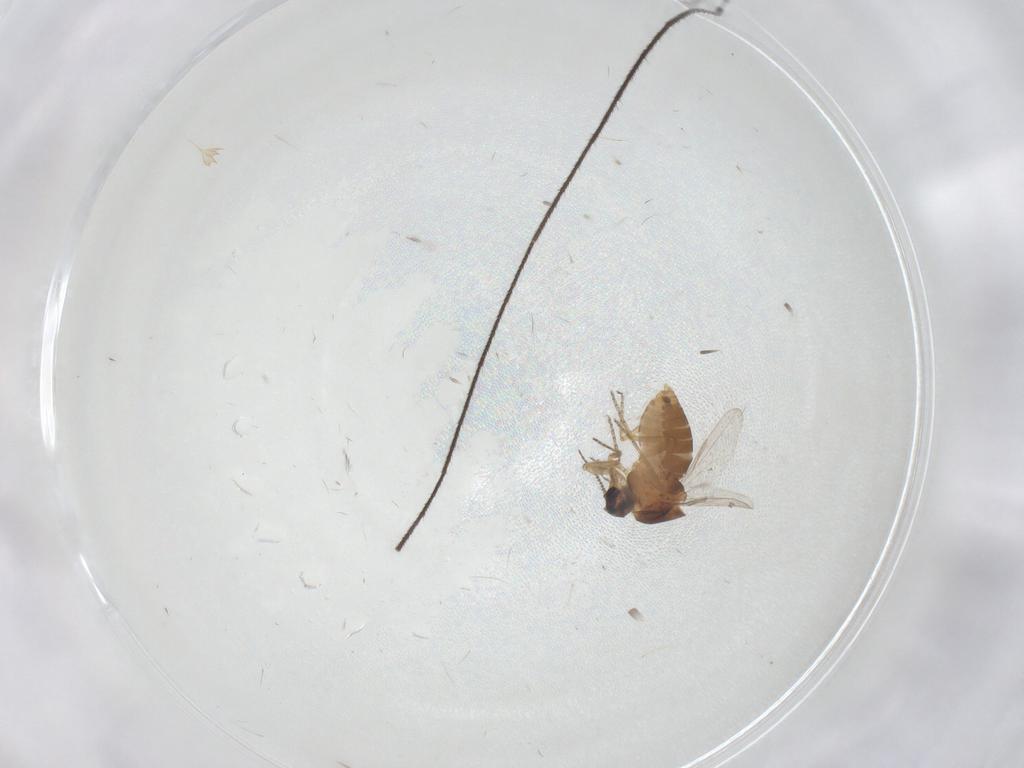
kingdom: Animalia
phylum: Arthropoda
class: Insecta
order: Diptera
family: Ceratopogonidae
